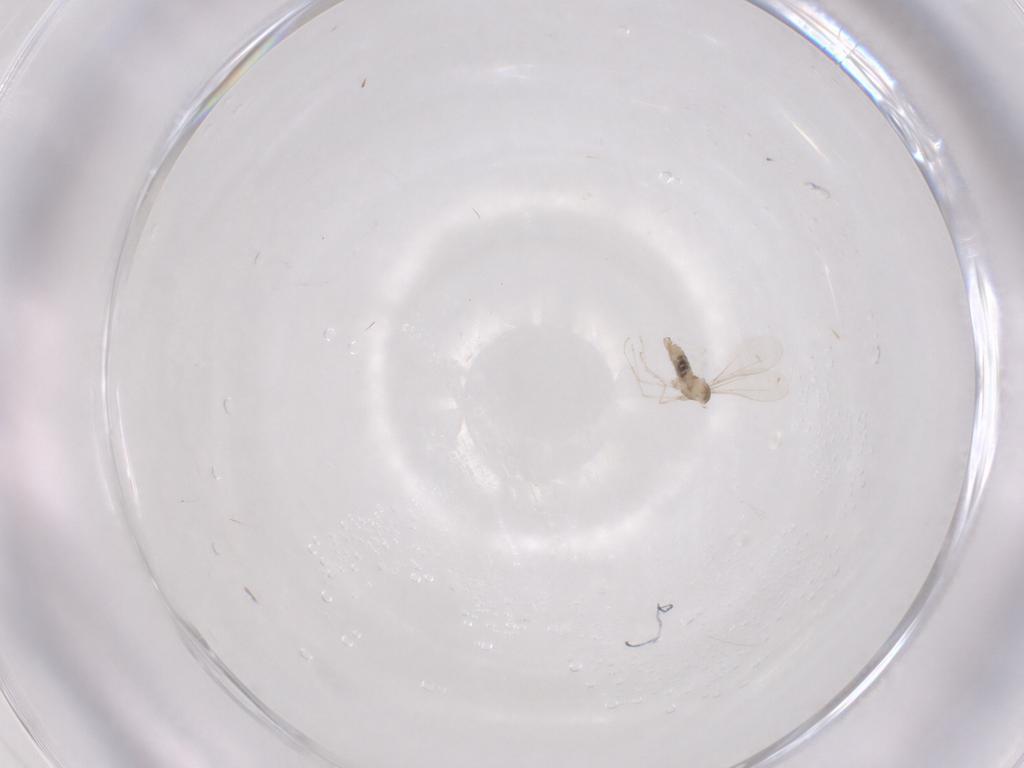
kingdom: Animalia
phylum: Arthropoda
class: Insecta
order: Diptera
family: Cecidomyiidae
